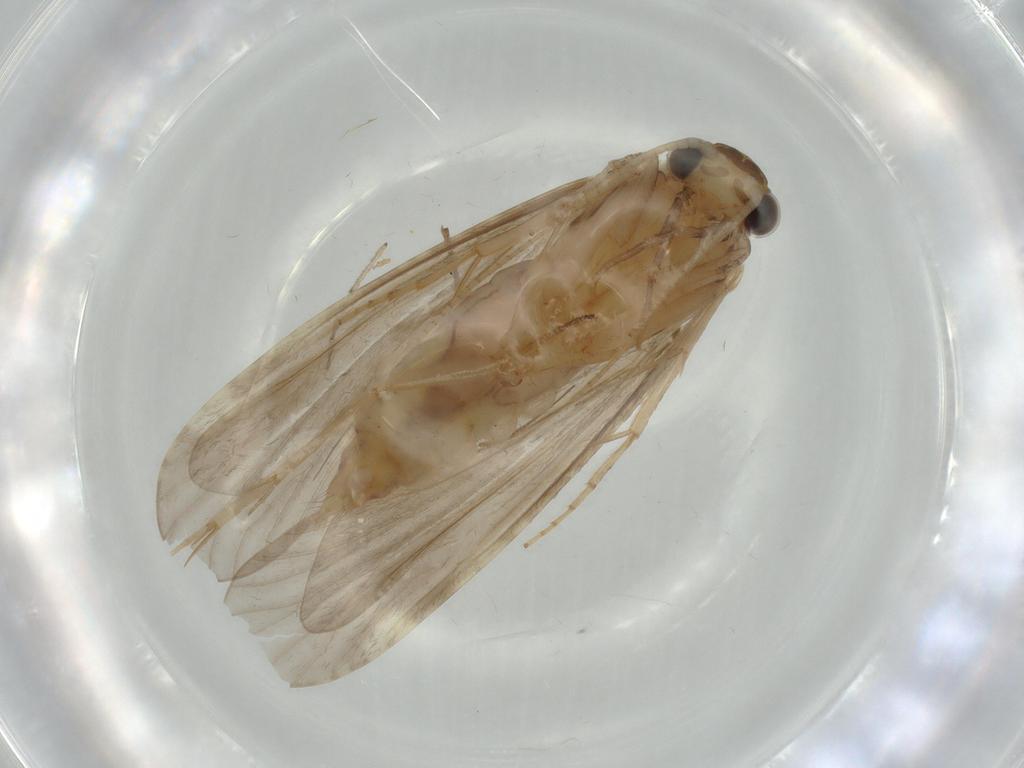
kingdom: Animalia
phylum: Arthropoda
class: Insecta
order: Diptera
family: Chironomidae
